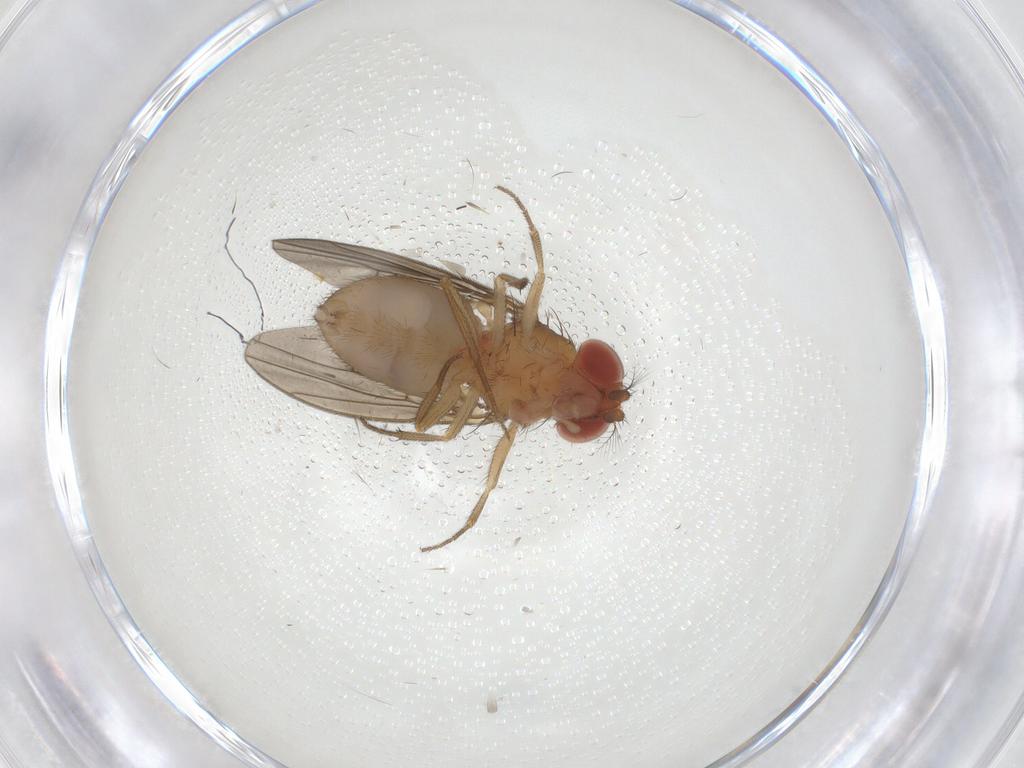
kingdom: Animalia
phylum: Arthropoda
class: Insecta
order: Diptera
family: Drosophilidae
